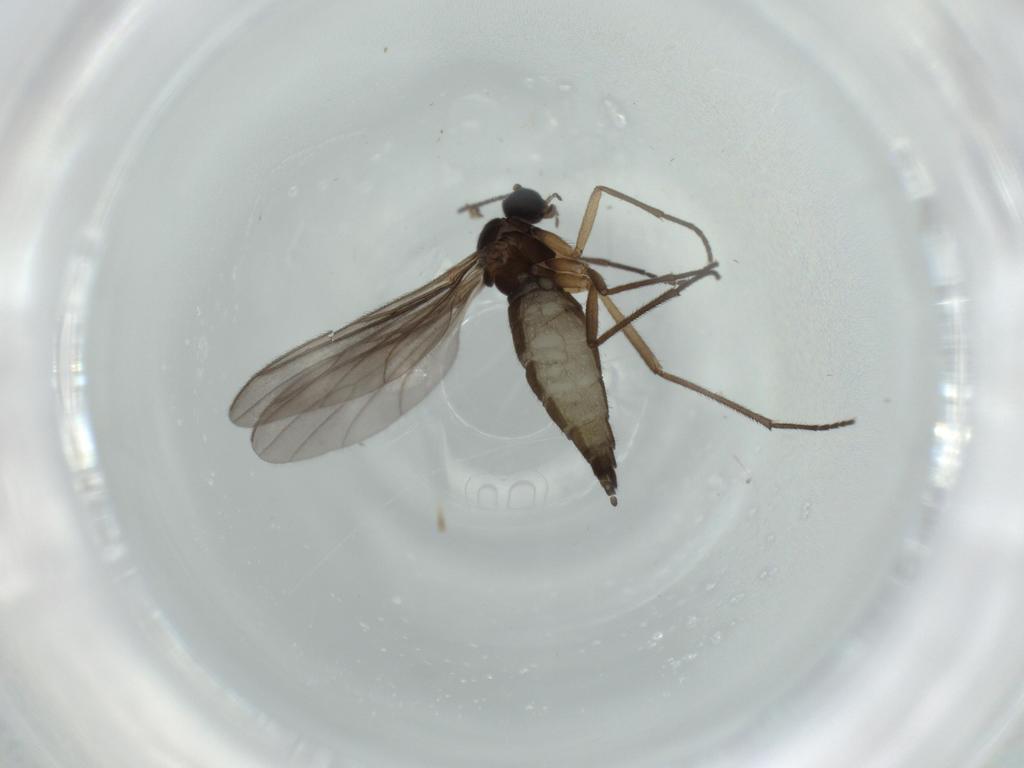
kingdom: Animalia
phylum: Arthropoda
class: Insecta
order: Diptera
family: Sciaridae
